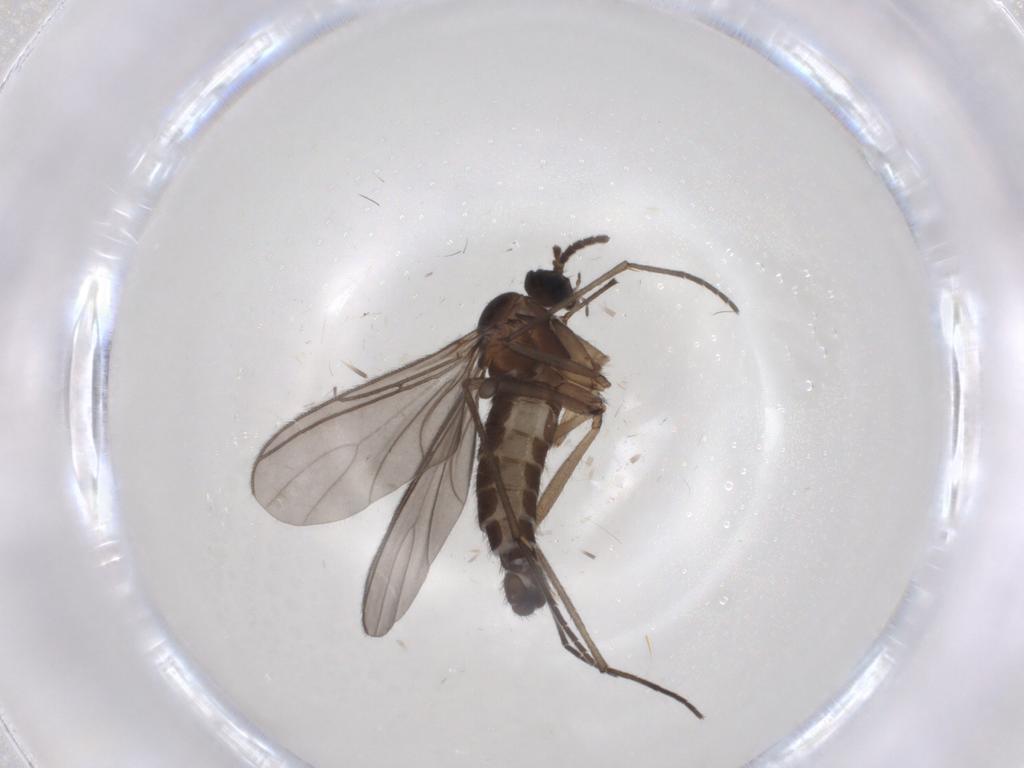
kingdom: Animalia
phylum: Arthropoda
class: Insecta
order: Diptera
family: Sciaridae
